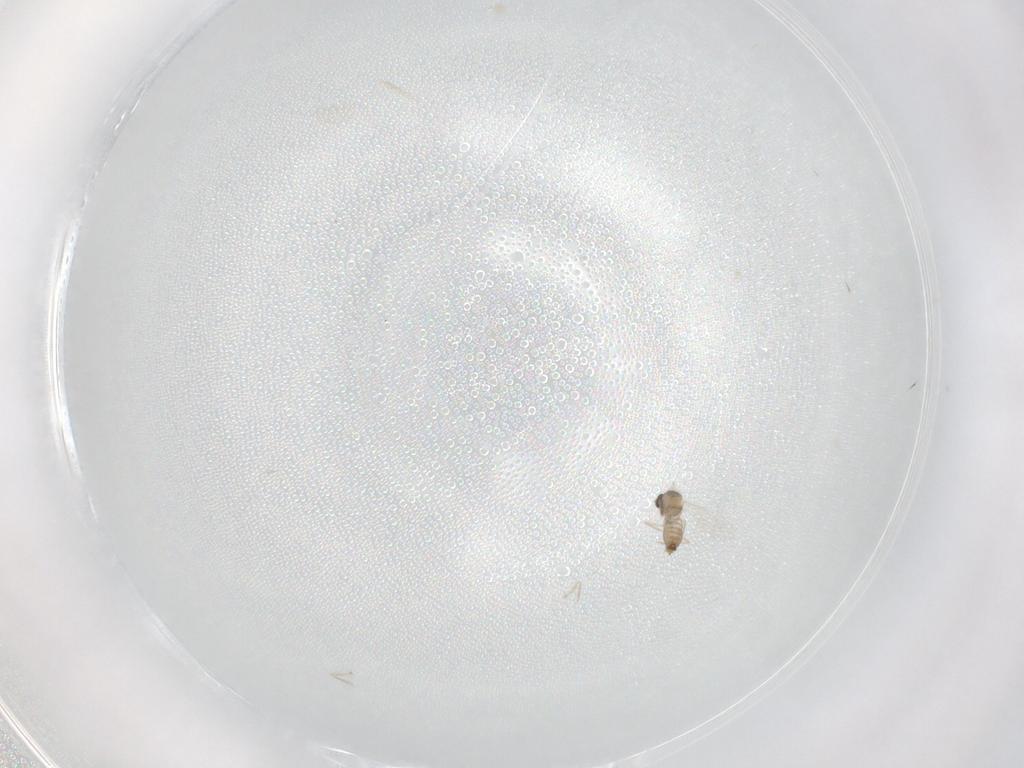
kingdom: Animalia
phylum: Arthropoda
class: Insecta
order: Diptera
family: Cecidomyiidae
